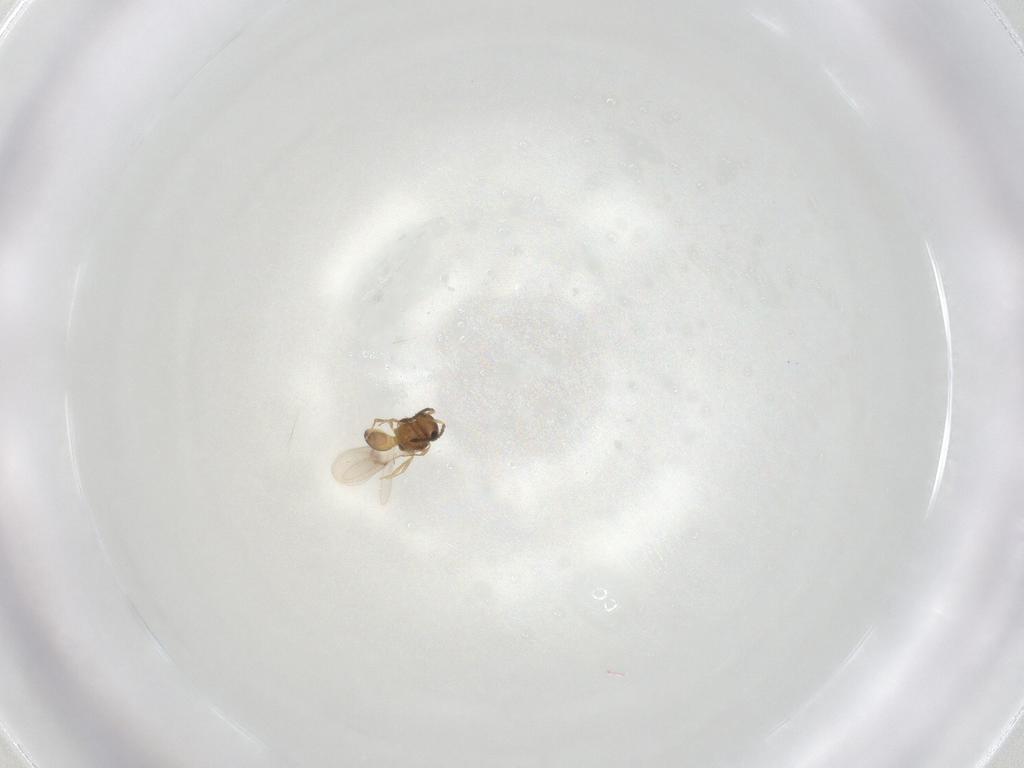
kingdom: Animalia
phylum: Arthropoda
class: Insecta
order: Hymenoptera
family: Scelionidae
